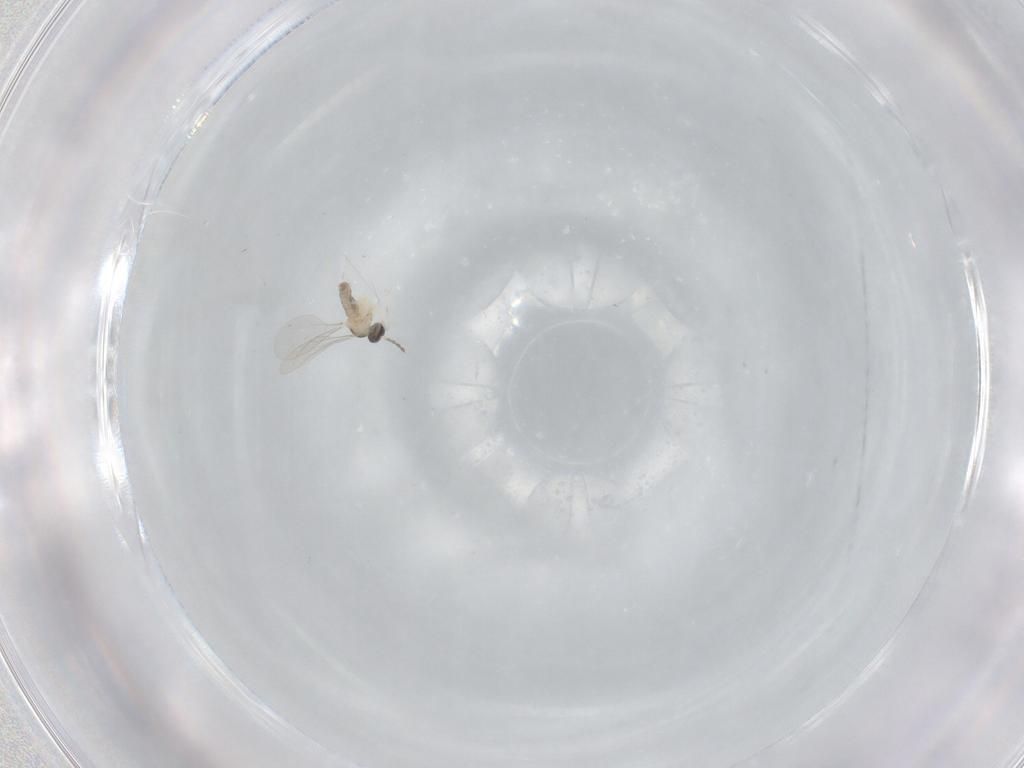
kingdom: Animalia
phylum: Arthropoda
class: Insecta
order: Diptera
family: Cecidomyiidae
